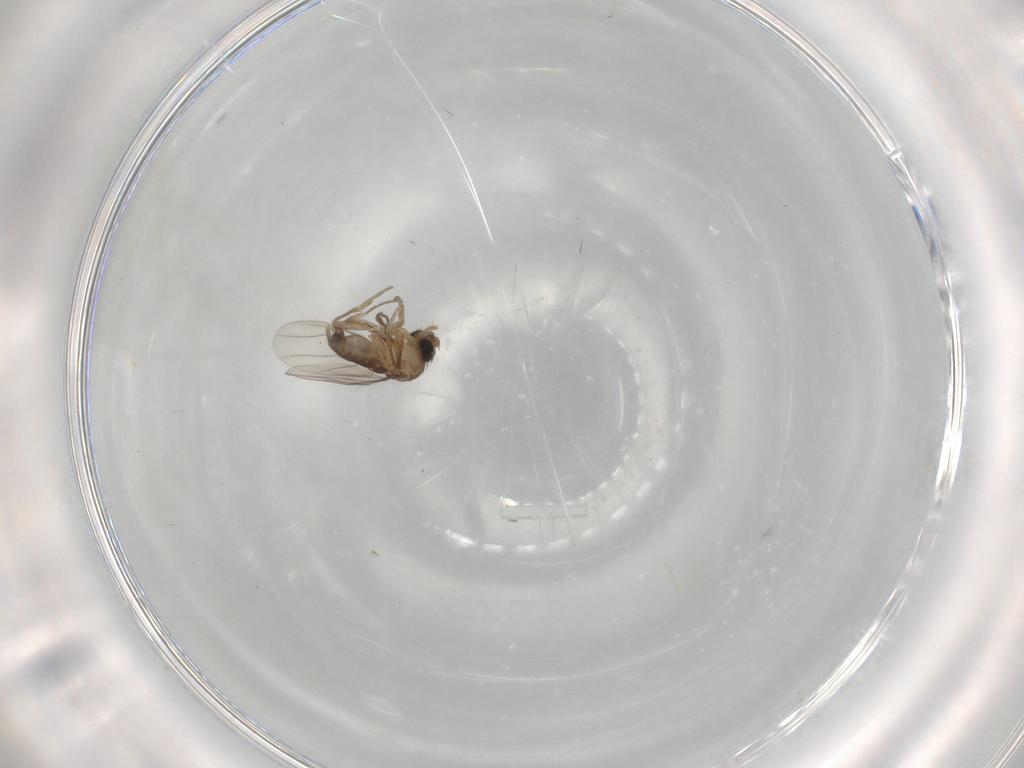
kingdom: Animalia
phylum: Arthropoda
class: Insecta
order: Diptera
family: Phoridae
